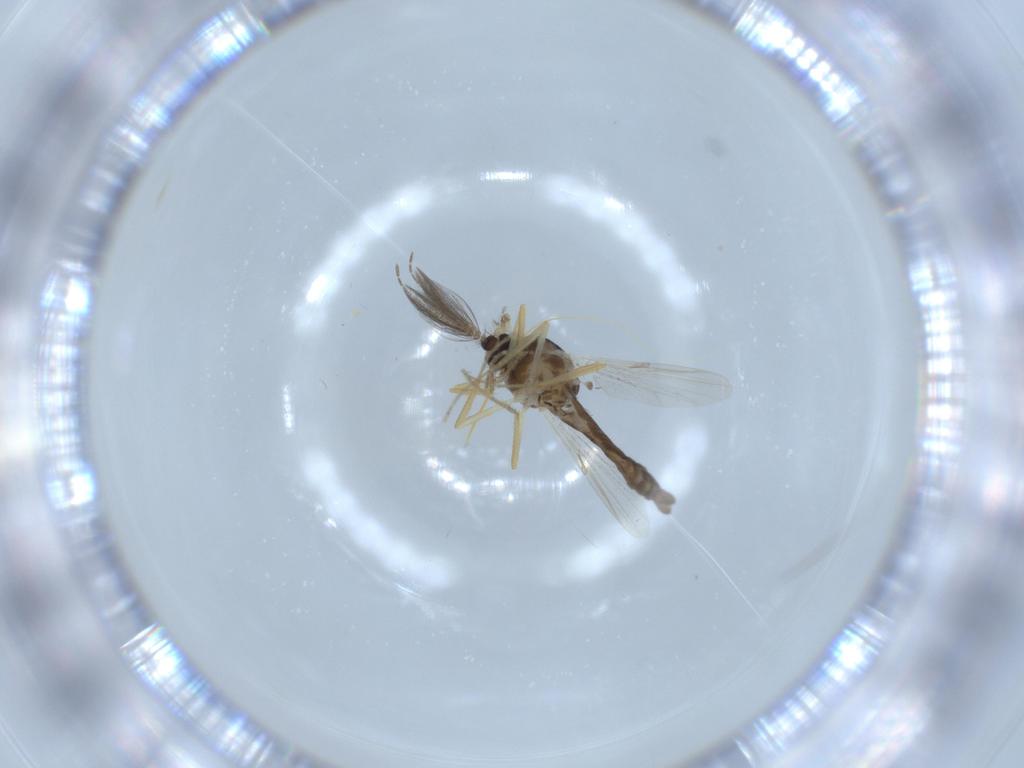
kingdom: Animalia
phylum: Arthropoda
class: Insecta
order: Diptera
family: Ceratopogonidae
